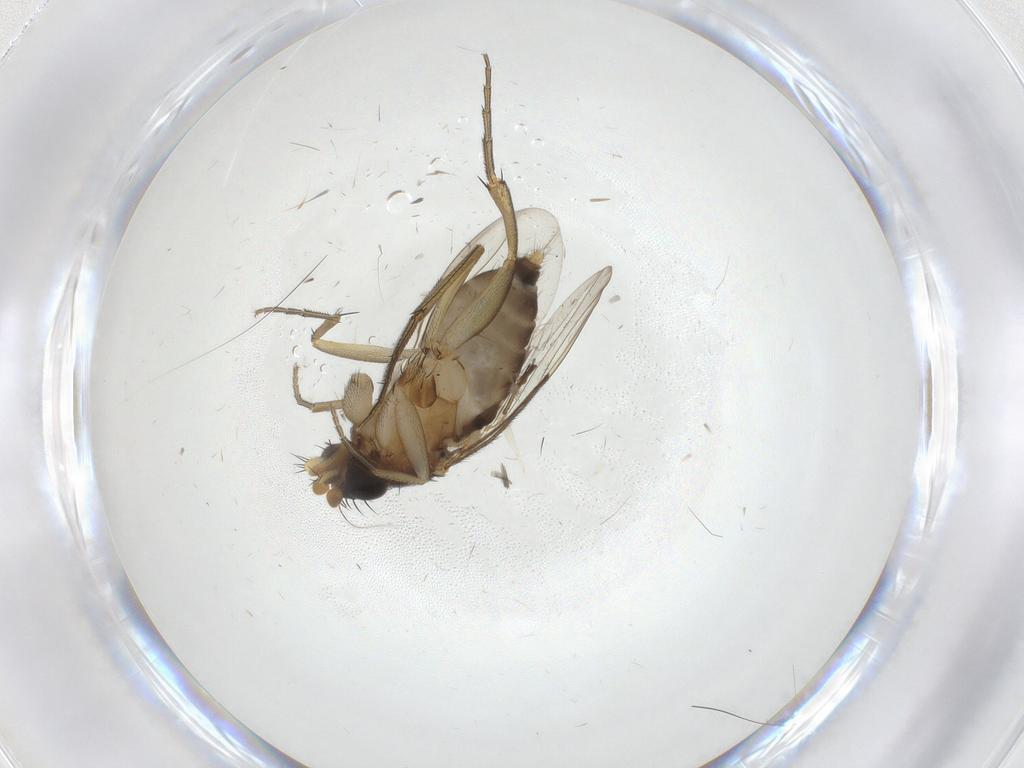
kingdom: Animalia
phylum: Arthropoda
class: Insecta
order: Diptera
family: Phoridae
